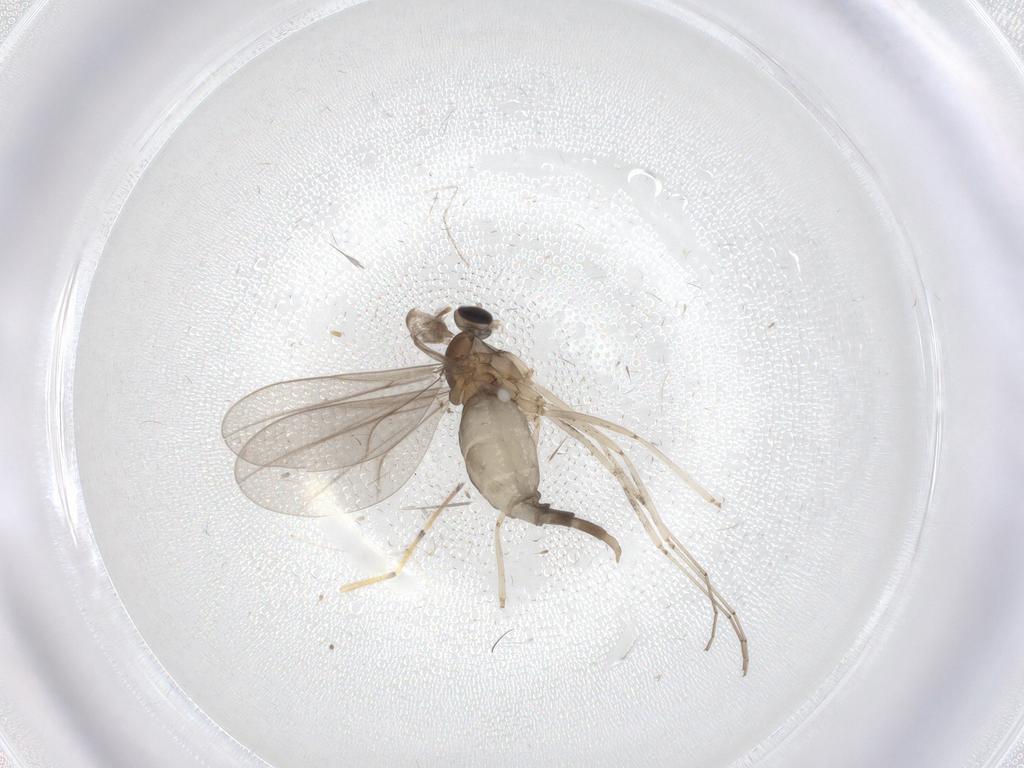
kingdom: Animalia
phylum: Arthropoda
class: Insecta
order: Diptera
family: Cecidomyiidae
